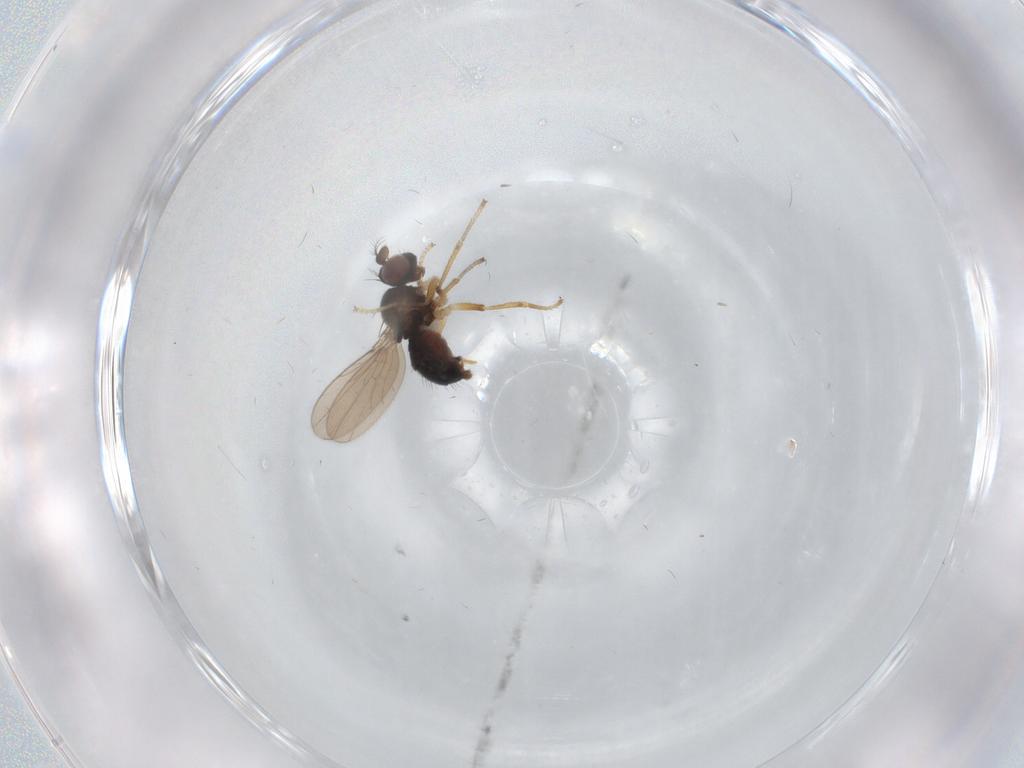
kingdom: Animalia
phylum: Arthropoda
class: Insecta
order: Diptera
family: Ephydridae
